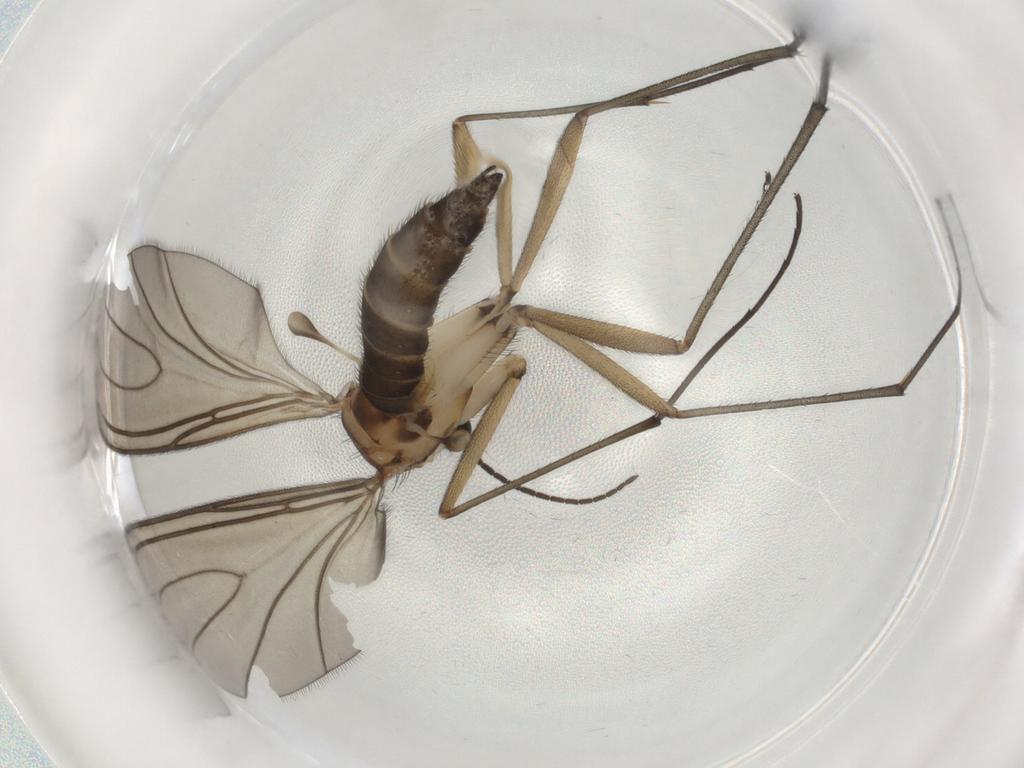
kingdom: Animalia
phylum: Arthropoda
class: Insecta
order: Diptera
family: Sciaridae
